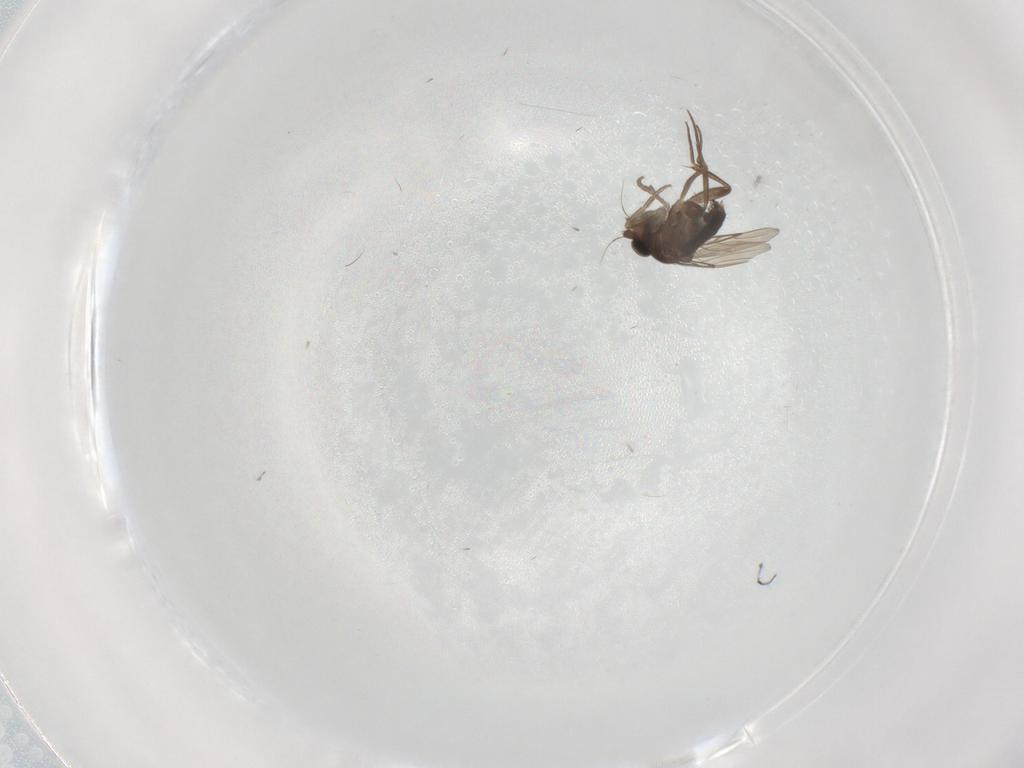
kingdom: Animalia
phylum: Arthropoda
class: Insecta
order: Diptera
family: Phoridae
